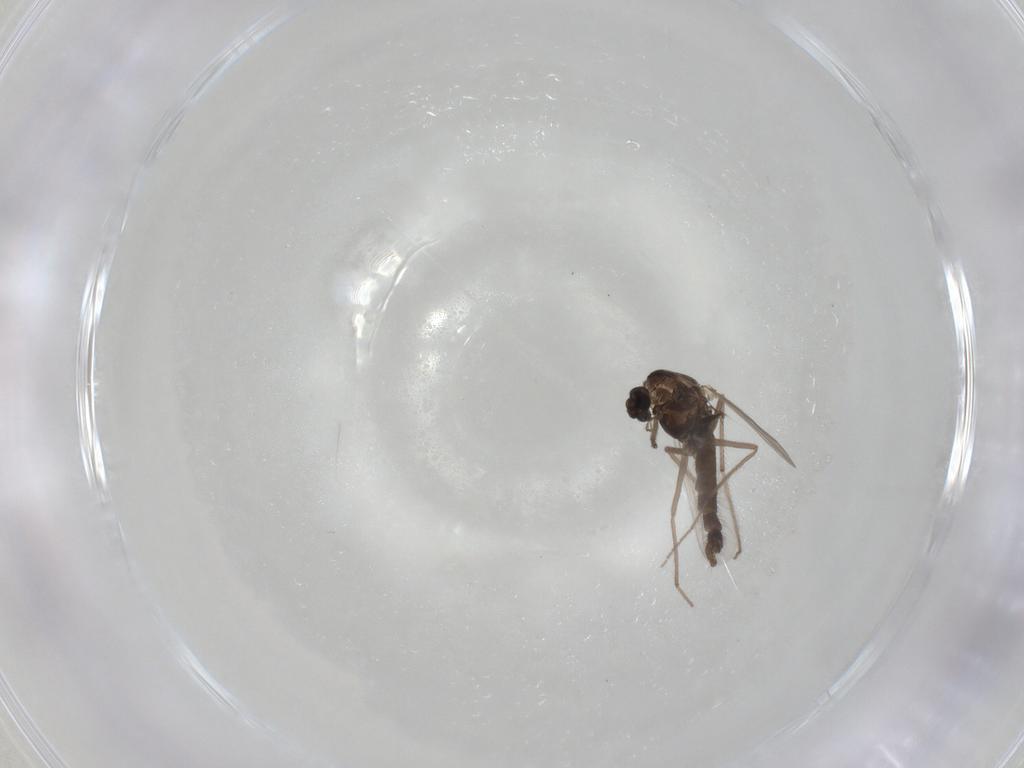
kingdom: Animalia
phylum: Arthropoda
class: Insecta
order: Diptera
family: Chironomidae
